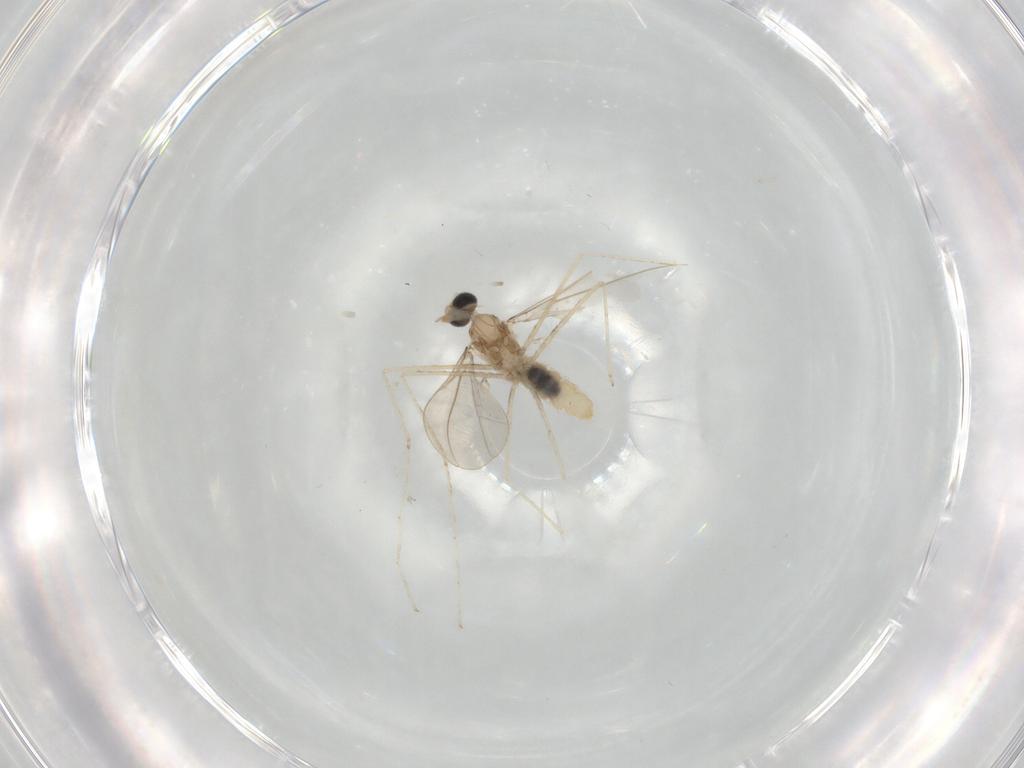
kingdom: Animalia
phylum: Arthropoda
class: Insecta
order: Diptera
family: Cecidomyiidae
